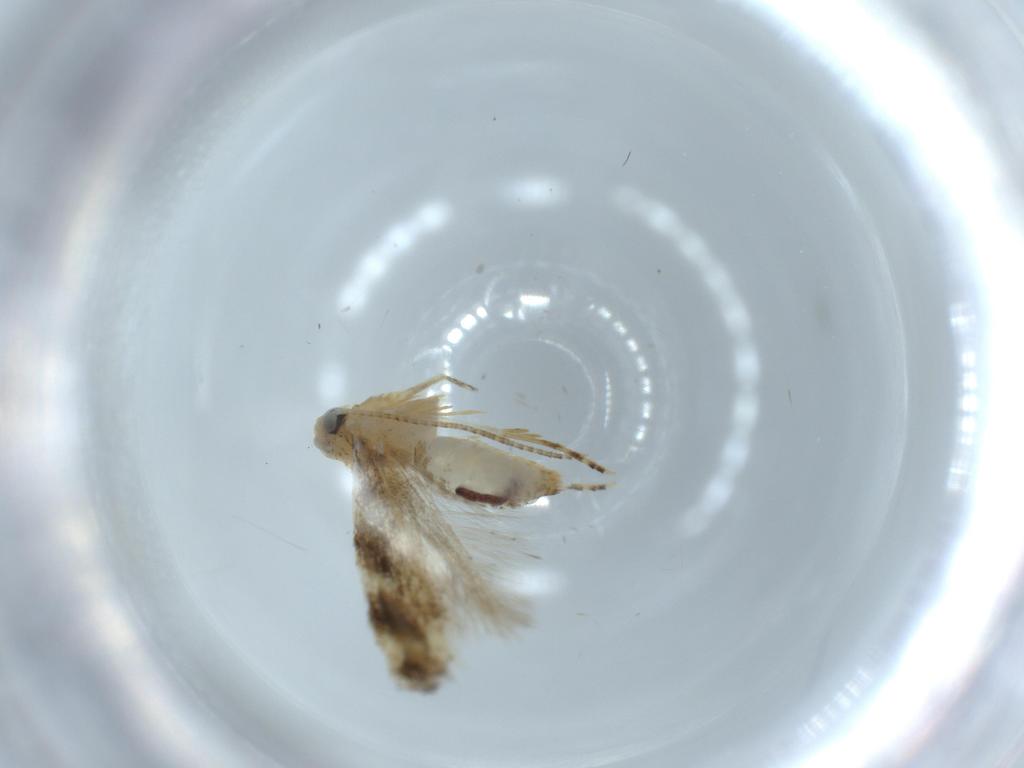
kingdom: Animalia
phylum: Arthropoda
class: Insecta
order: Lepidoptera
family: Bucculatricidae
